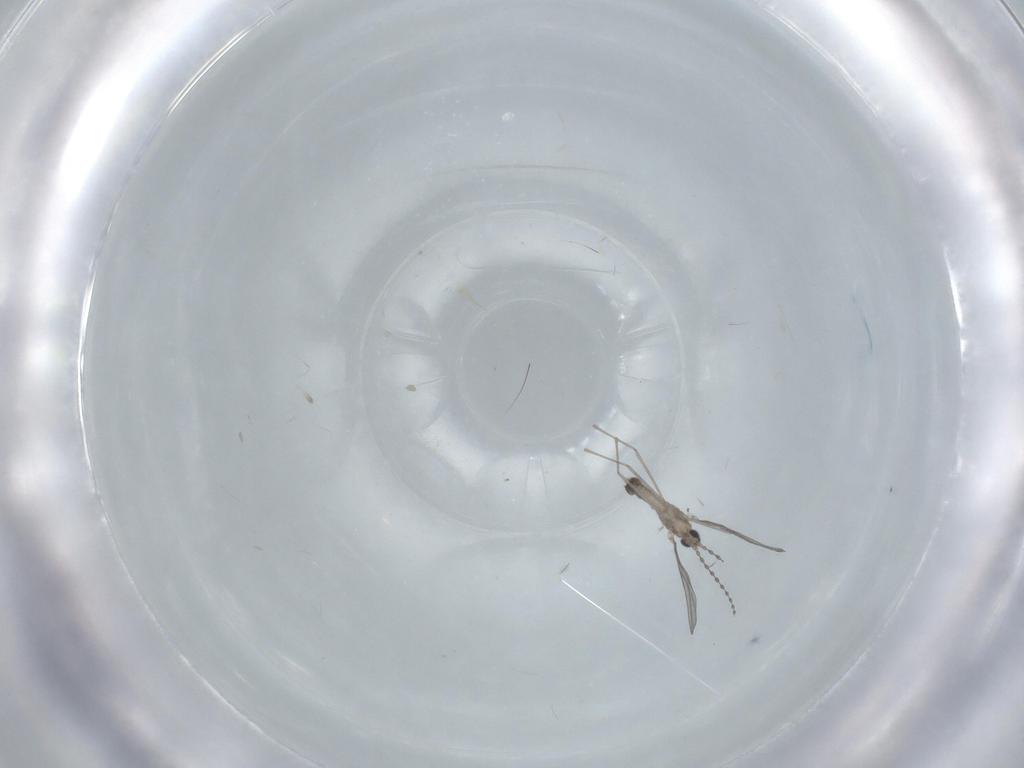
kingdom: Animalia
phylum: Arthropoda
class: Insecta
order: Diptera
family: Cecidomyiidae
